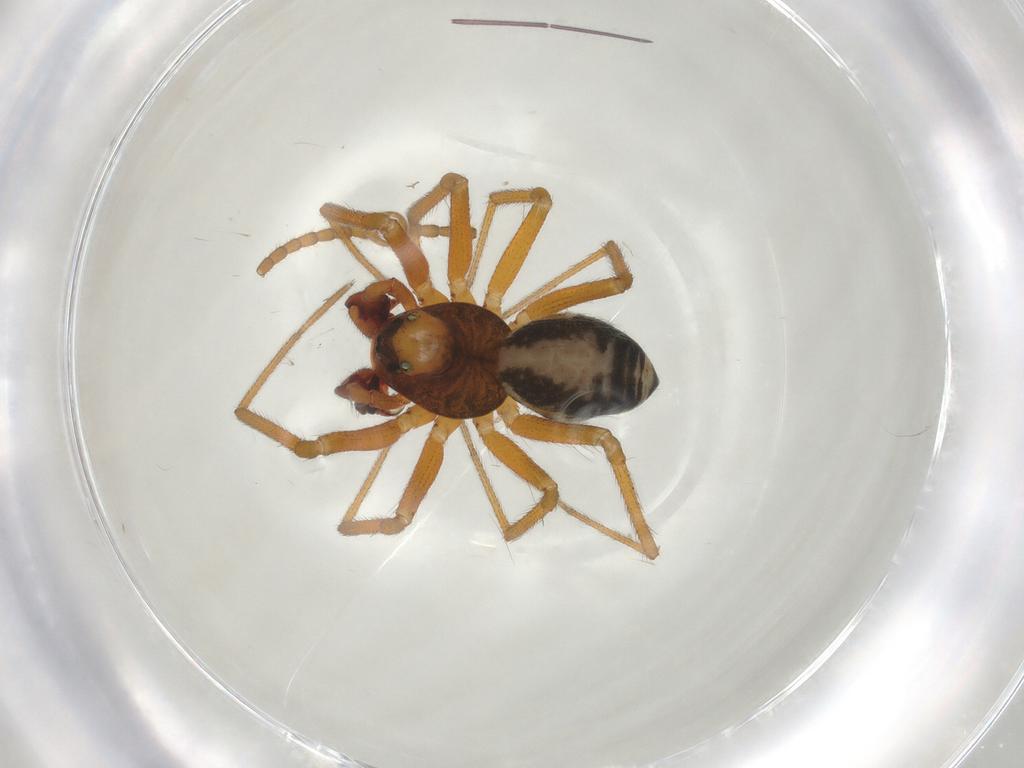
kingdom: Animalia
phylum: Arthropoda
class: Arachnida
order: Araneae
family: Linyphiidae
